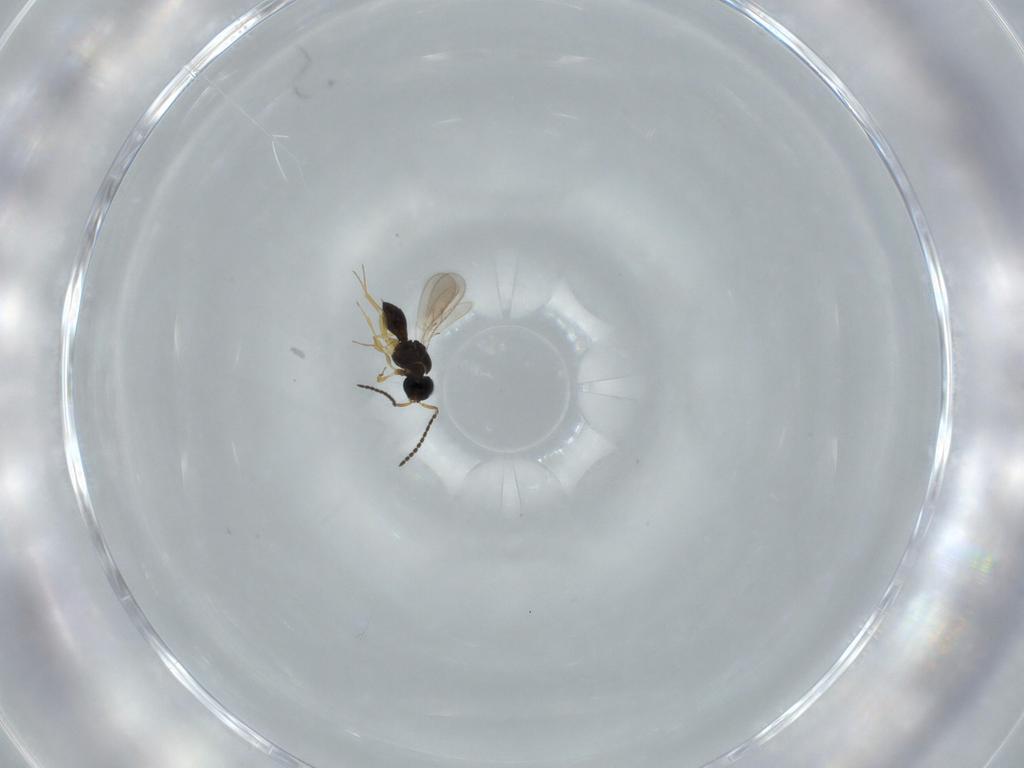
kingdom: Animalia
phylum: Arthropoda
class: Insecta
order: Hymenoptera
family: Scelionidae
